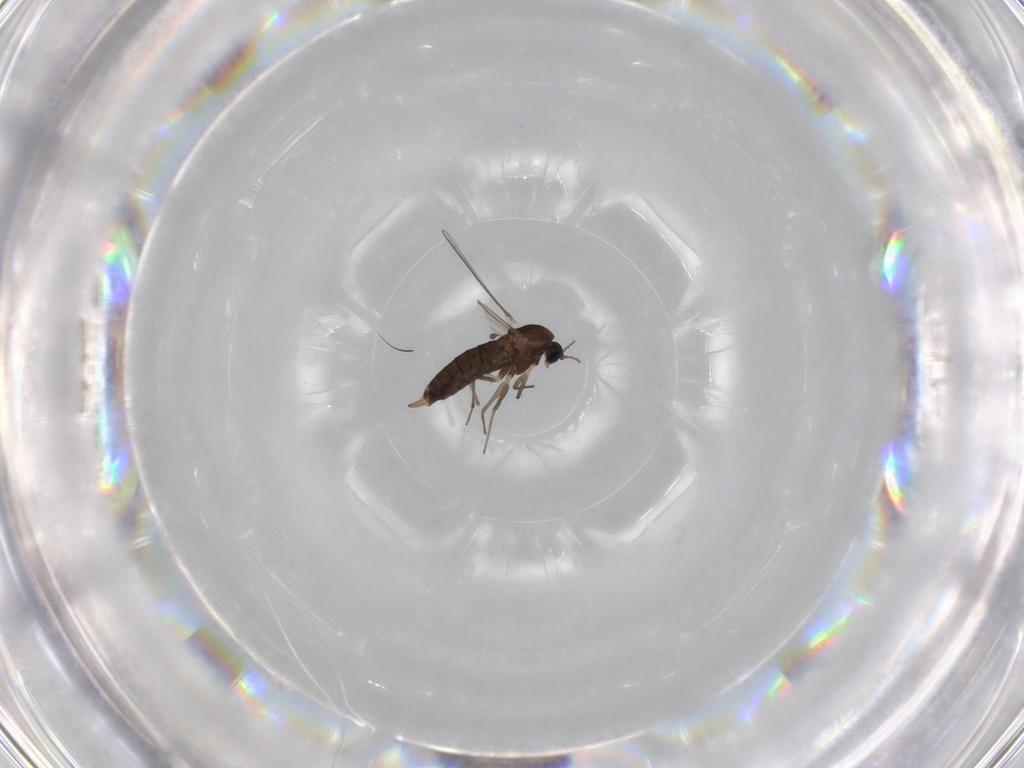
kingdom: Animalia
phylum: Arthropoda
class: Insecta
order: Diptera
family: Chironomidae
